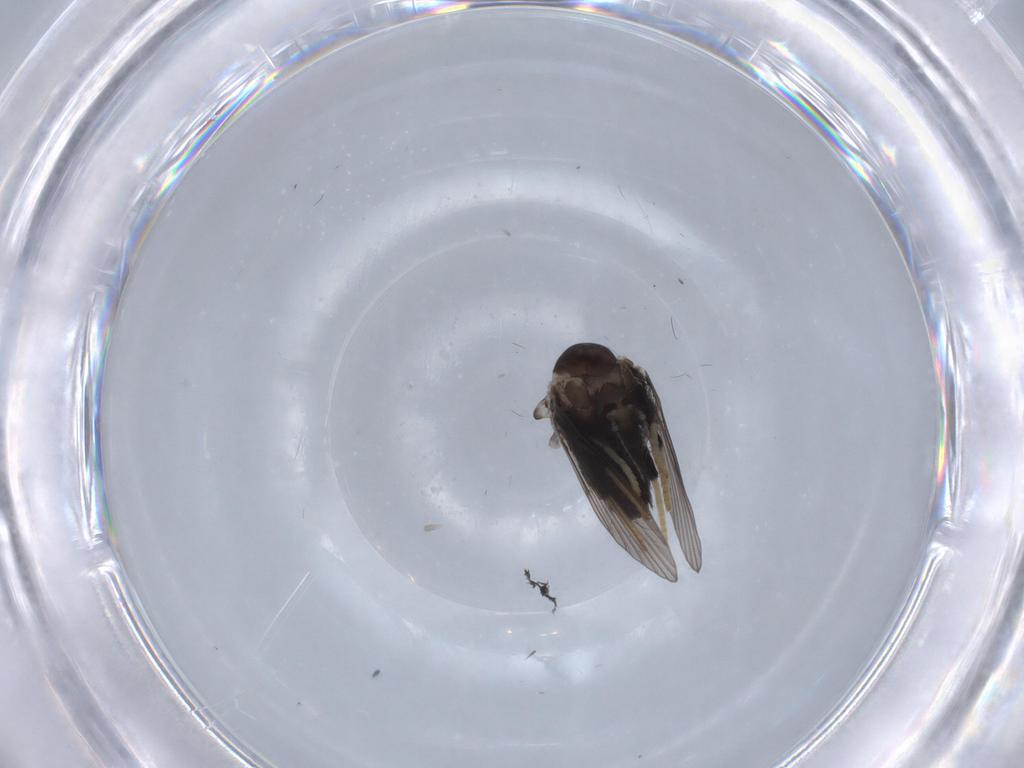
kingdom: Animalia
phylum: Arthropoda
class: Insecta
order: Diptera
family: Psychodidae
